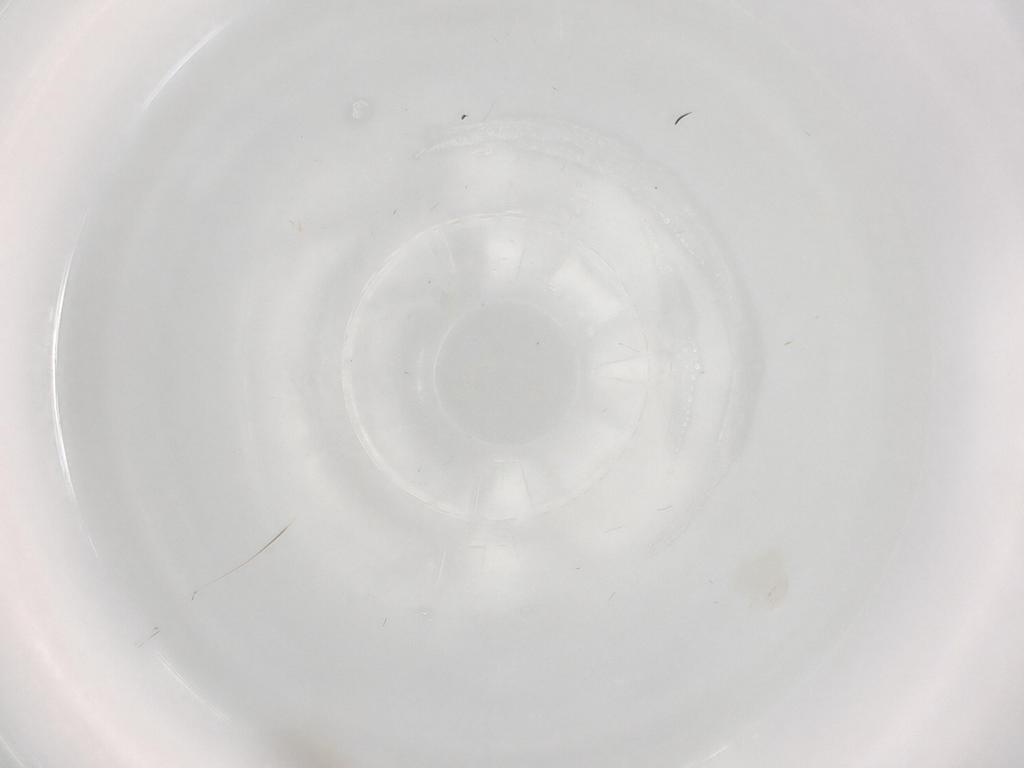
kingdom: Animalia
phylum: Arthropoda
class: Insecta
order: Diptera
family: Cecidomyiidae
